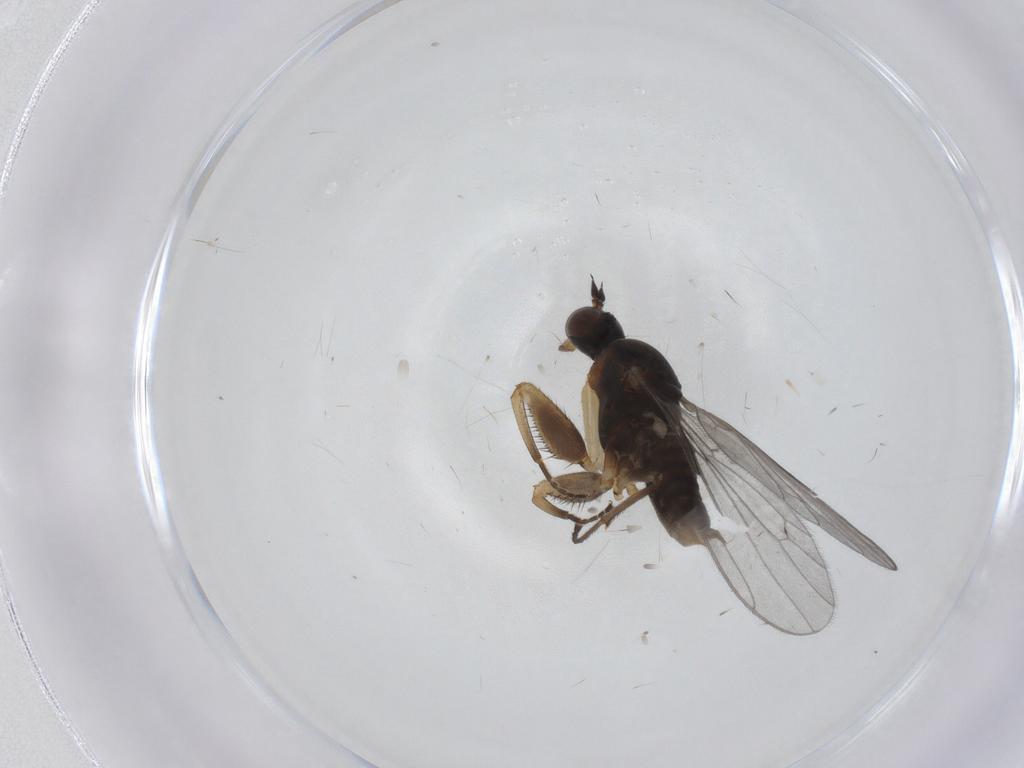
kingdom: Animalia
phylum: Arthropoda
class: Insecta
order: Diptera
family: Empididae
